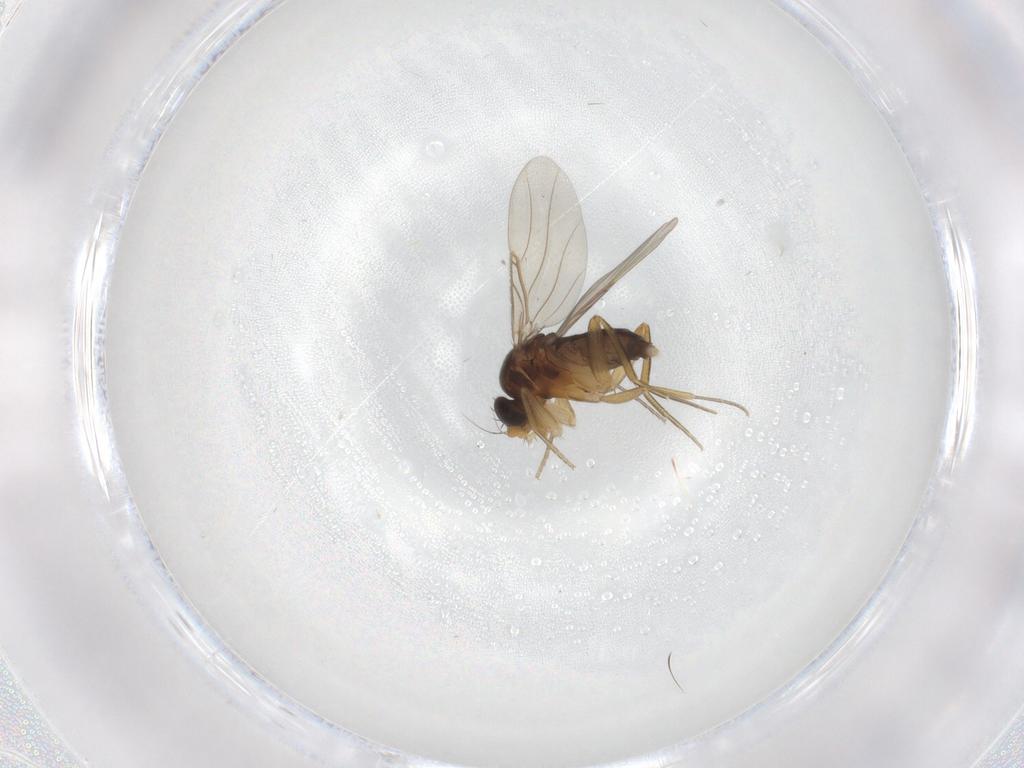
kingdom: Animalia
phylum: Arthropoda
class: Insecta
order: Diptera
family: Phoridae
